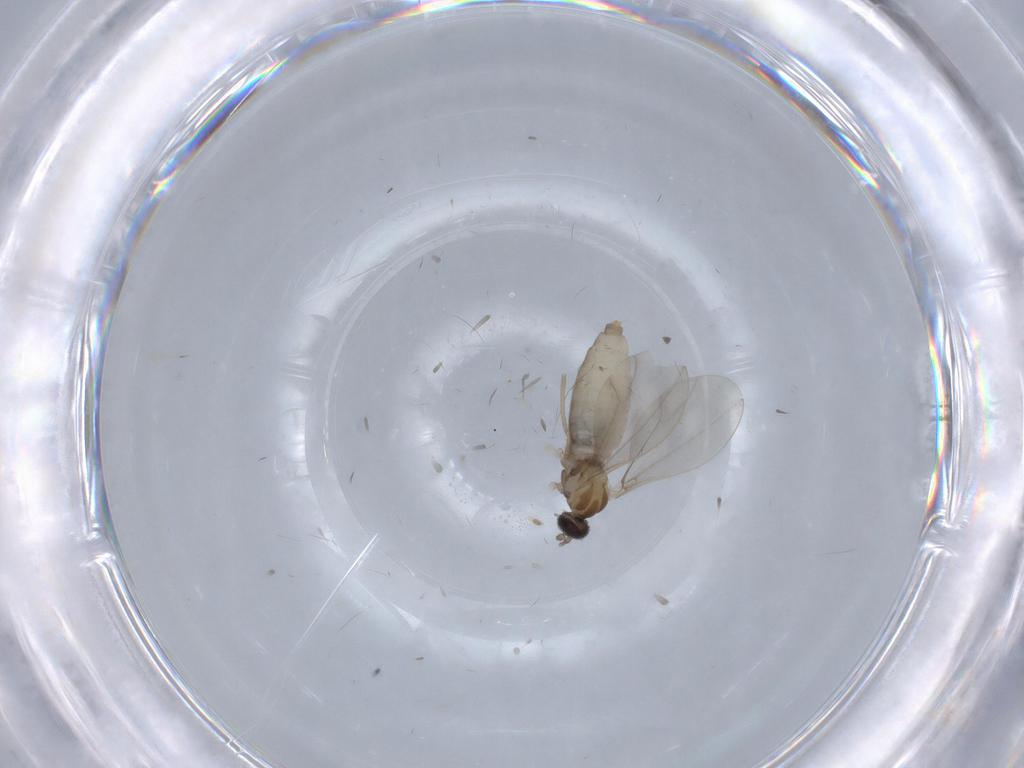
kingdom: Animalia
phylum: Arthropoda
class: Insecta
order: Diptera
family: Cecidomyiidae
